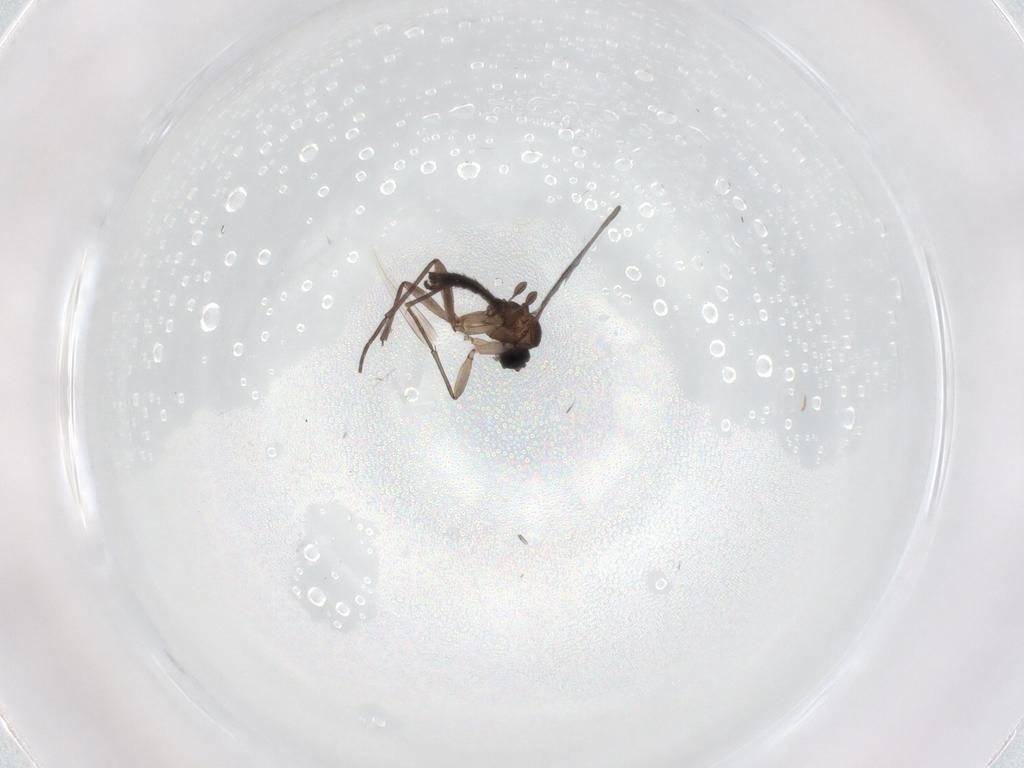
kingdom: Animalia
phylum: Arthropoda
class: Insecta
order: Diptera
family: Sciaridae
